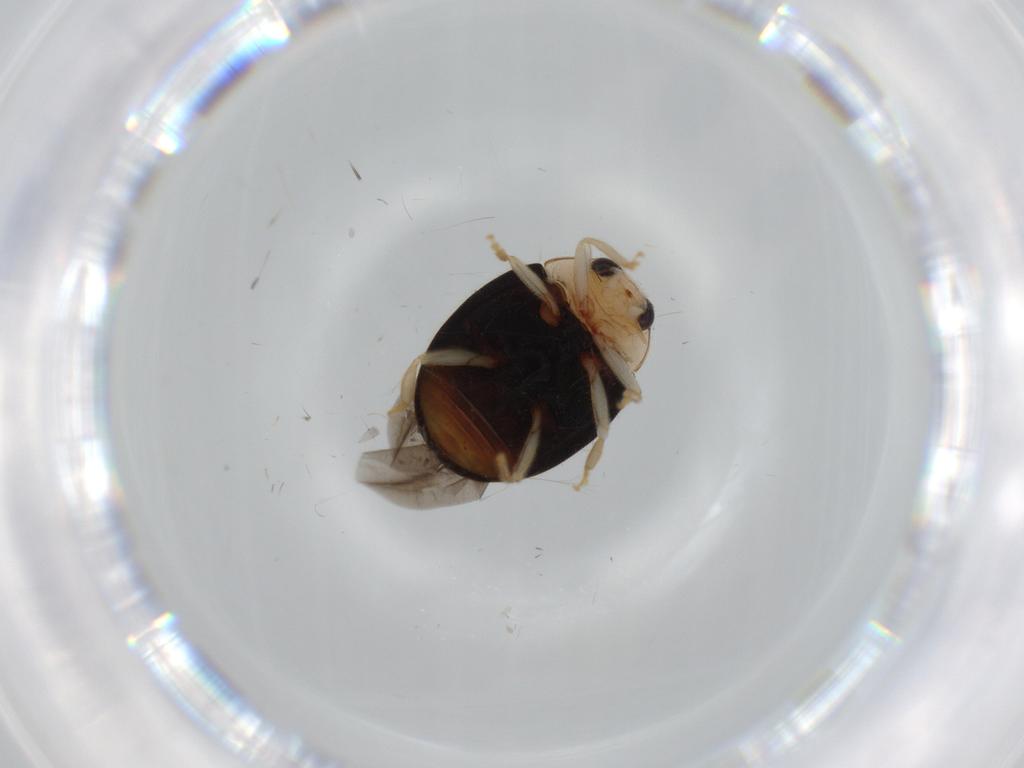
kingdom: Animalia
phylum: Arthropoda
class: Insecta
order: Coleoptera
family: Coccinellidae
